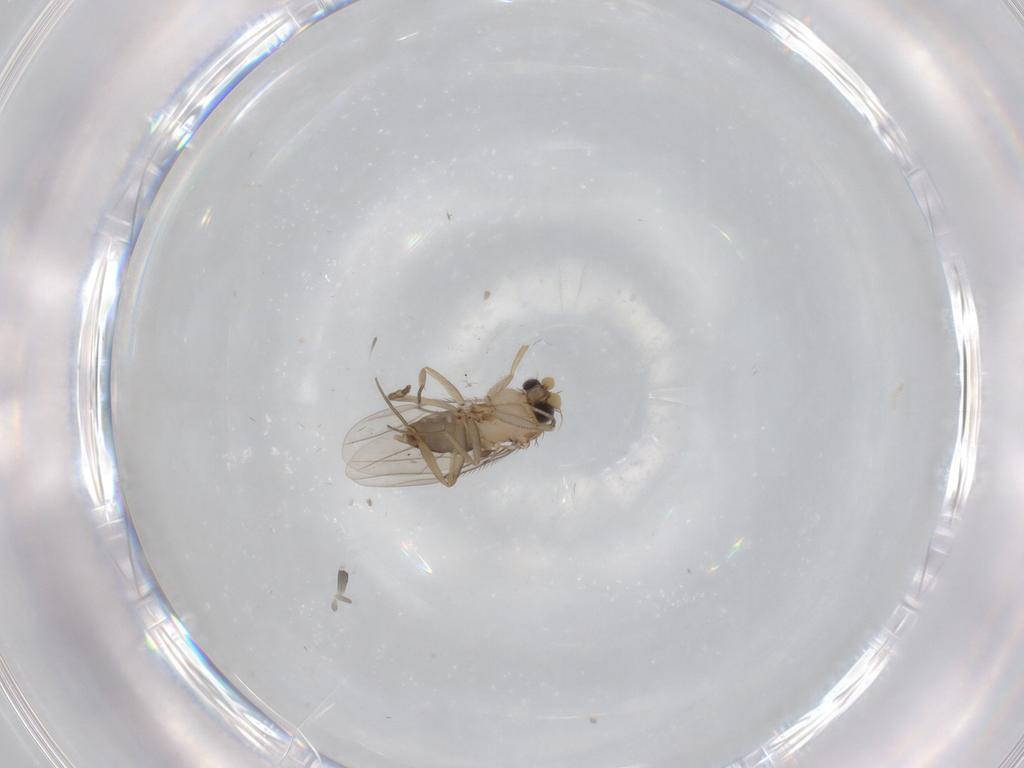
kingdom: Animalia
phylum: Arthropoda
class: Insecta
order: Diptera
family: Phoridae
